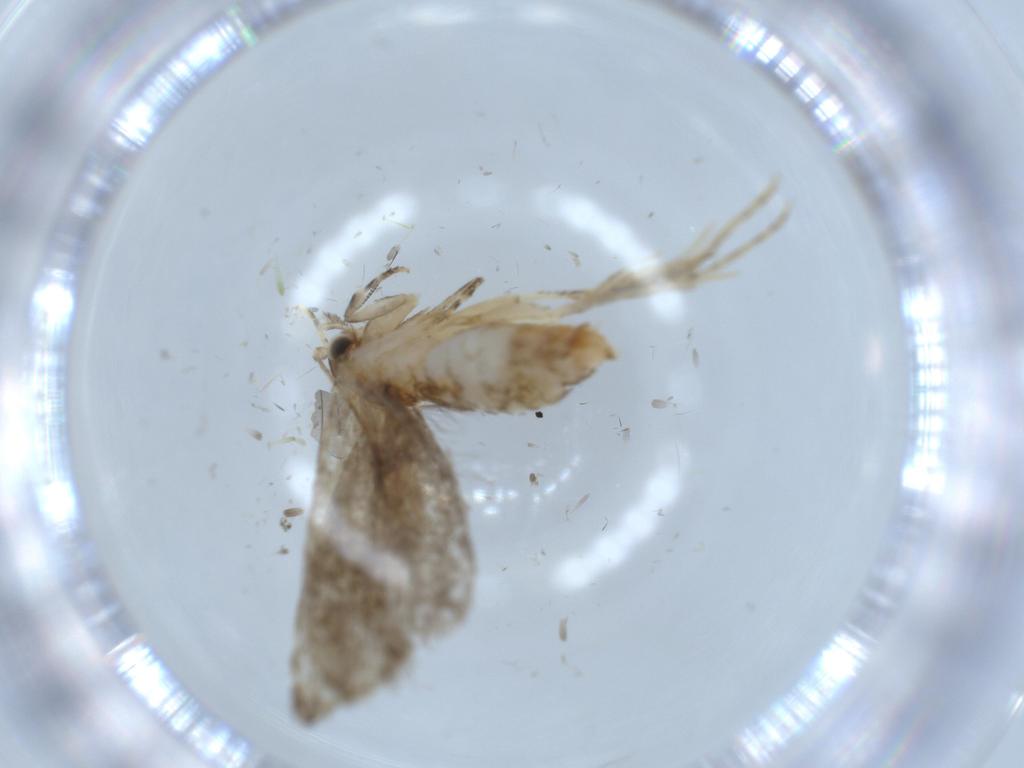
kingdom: Animalia
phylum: Arthropoda
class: Insecta
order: Lepidoptera
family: Tineidae
